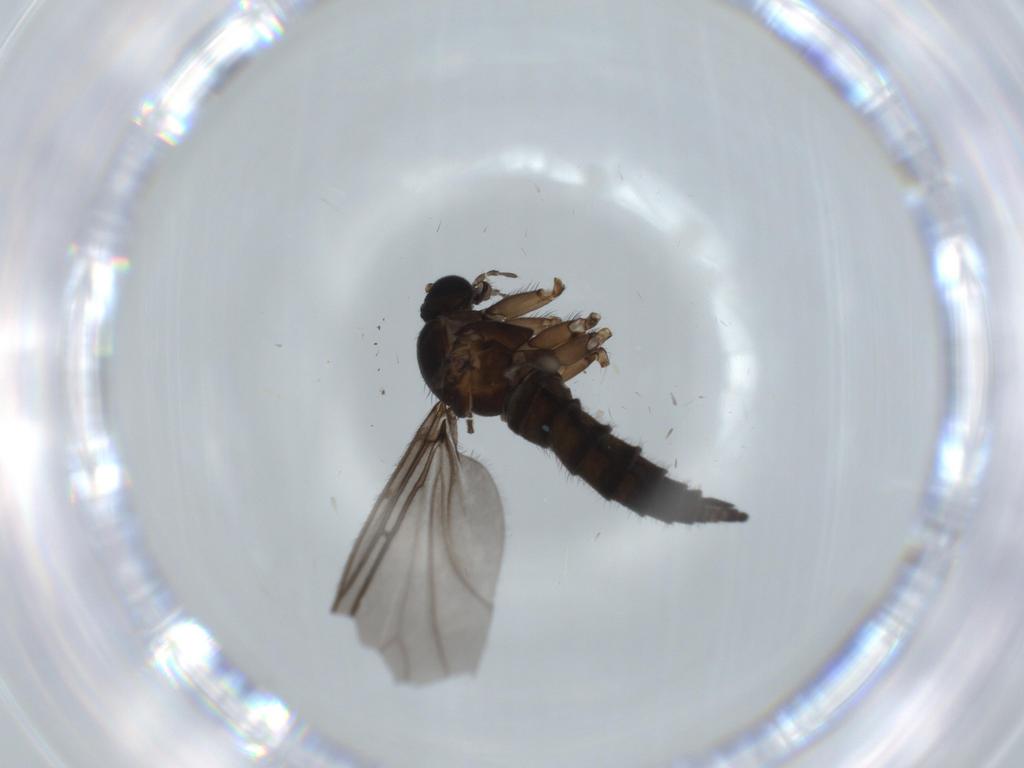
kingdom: Animalia
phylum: Arthropoda
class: Insecta
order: Diptera
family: Sciaridae
